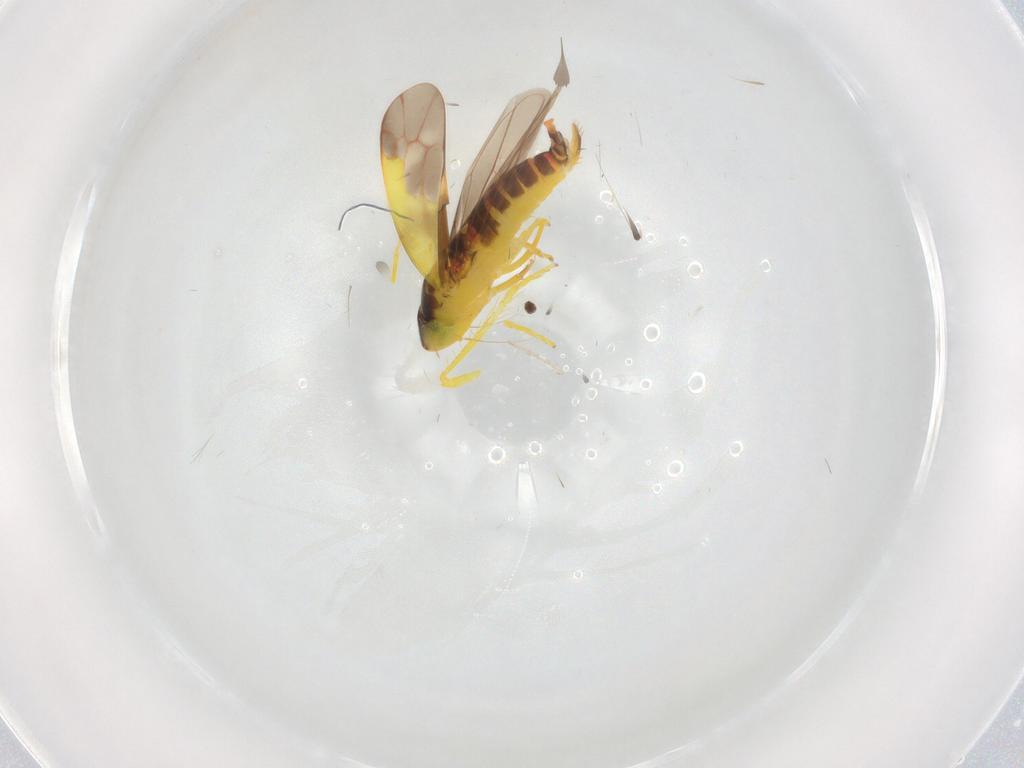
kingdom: Animalia
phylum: Arthropoda
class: Insecta
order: Hemiptera
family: Cicadellidae
